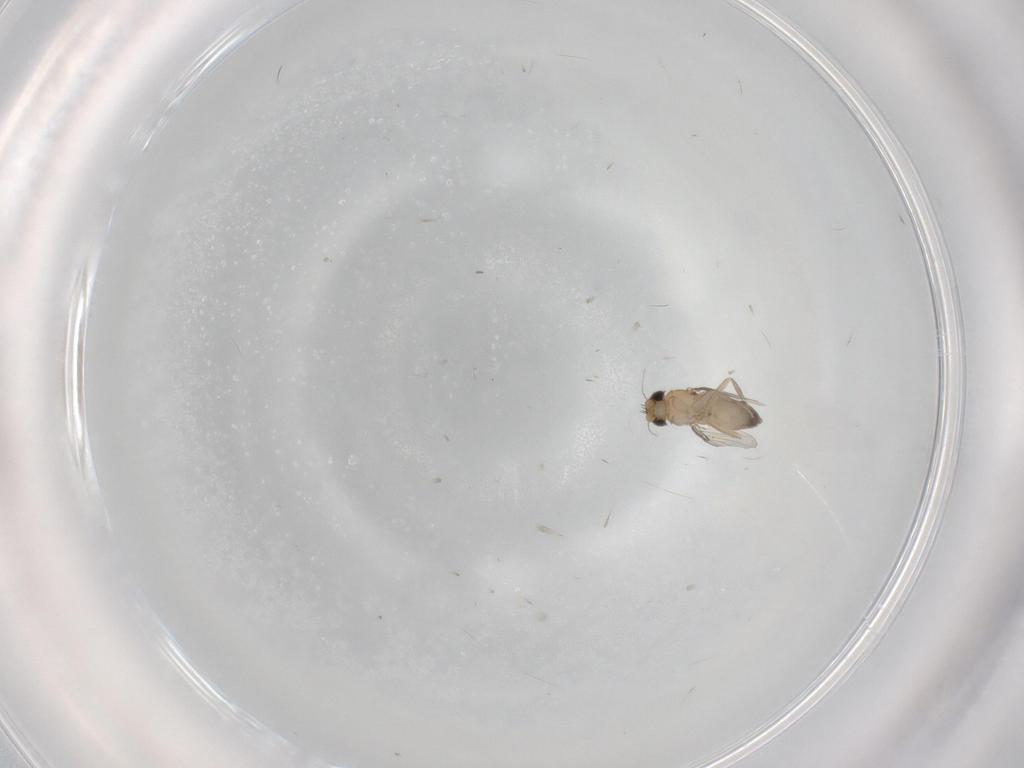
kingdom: Animalia
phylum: Arthropoda
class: Insecta
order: Diptera
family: Phoridae
